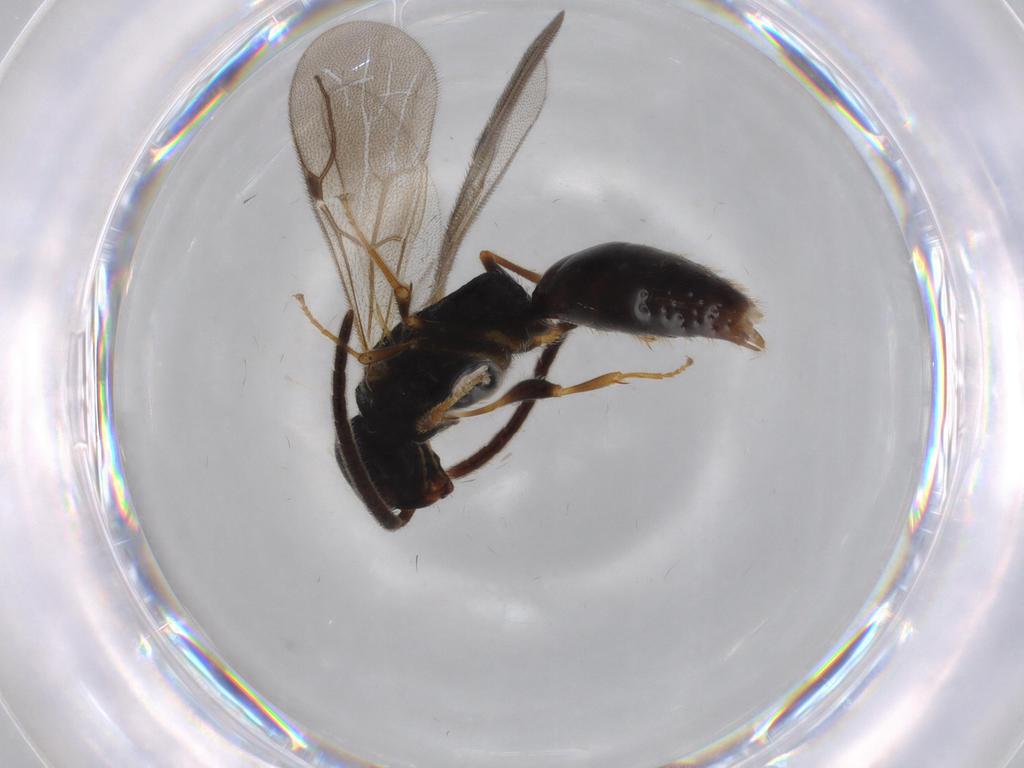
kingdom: Animalia
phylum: Arthropoda
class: Insecta
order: Hymenoptera
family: Bethylidae
